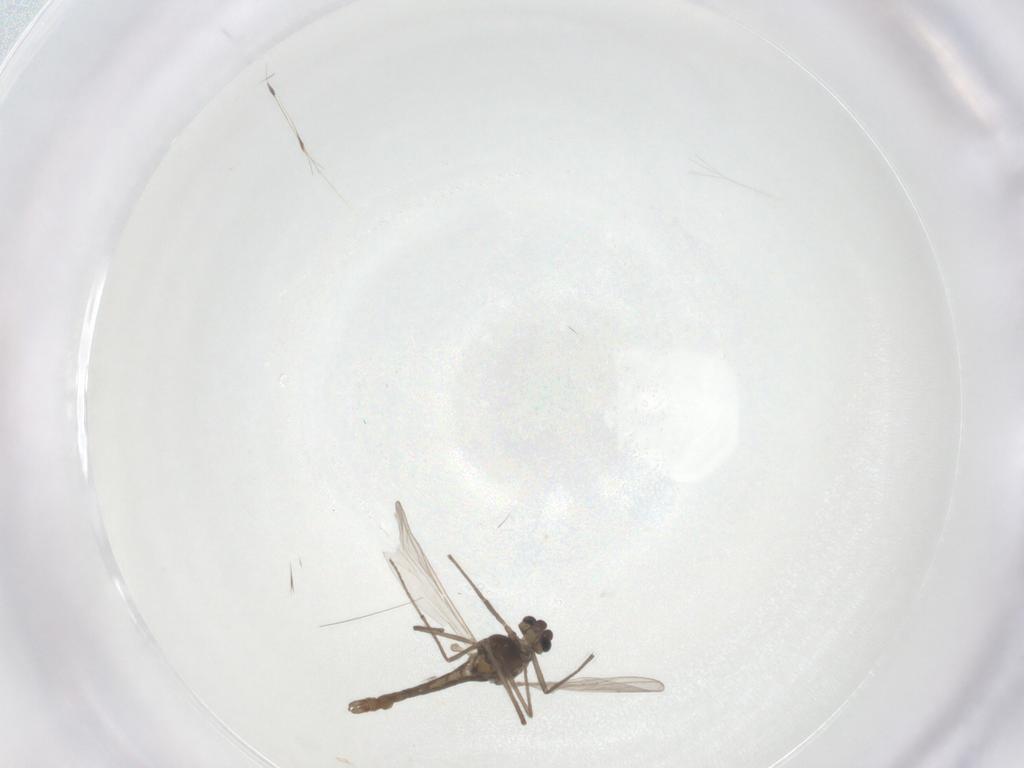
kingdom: Animalia
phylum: Arthropoda
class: Insecta
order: Diptera
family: Chironomidae
